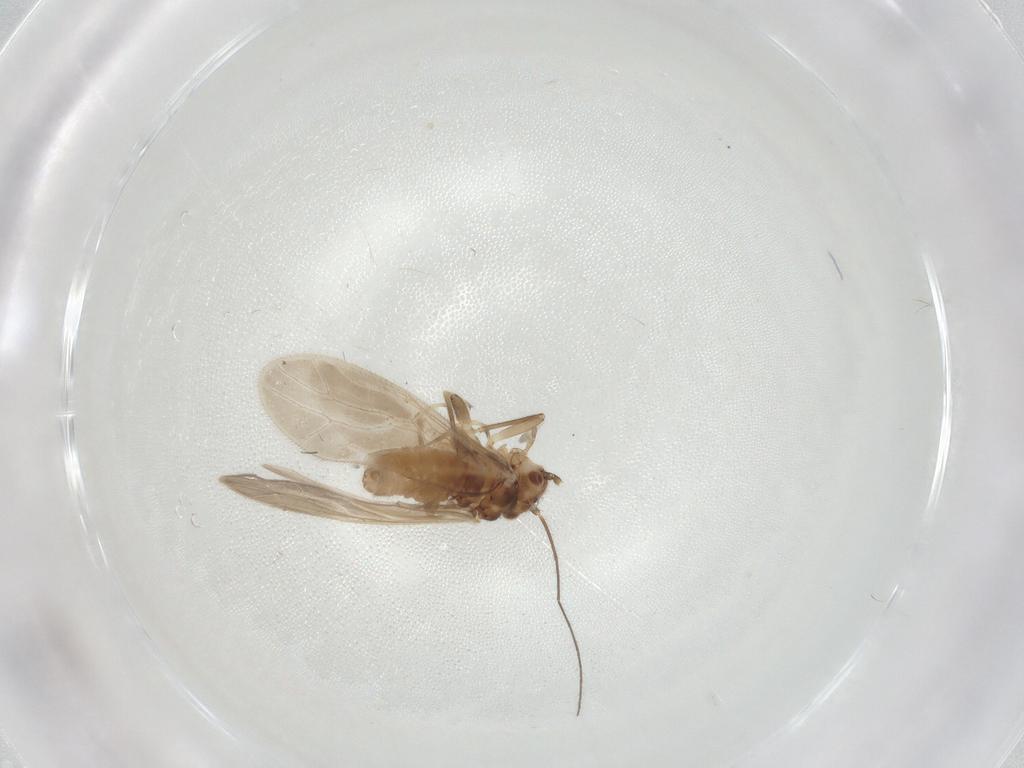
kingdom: Animalia
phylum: Arthropoda
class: Insecta
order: Psocodea
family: Caeciliusidae
